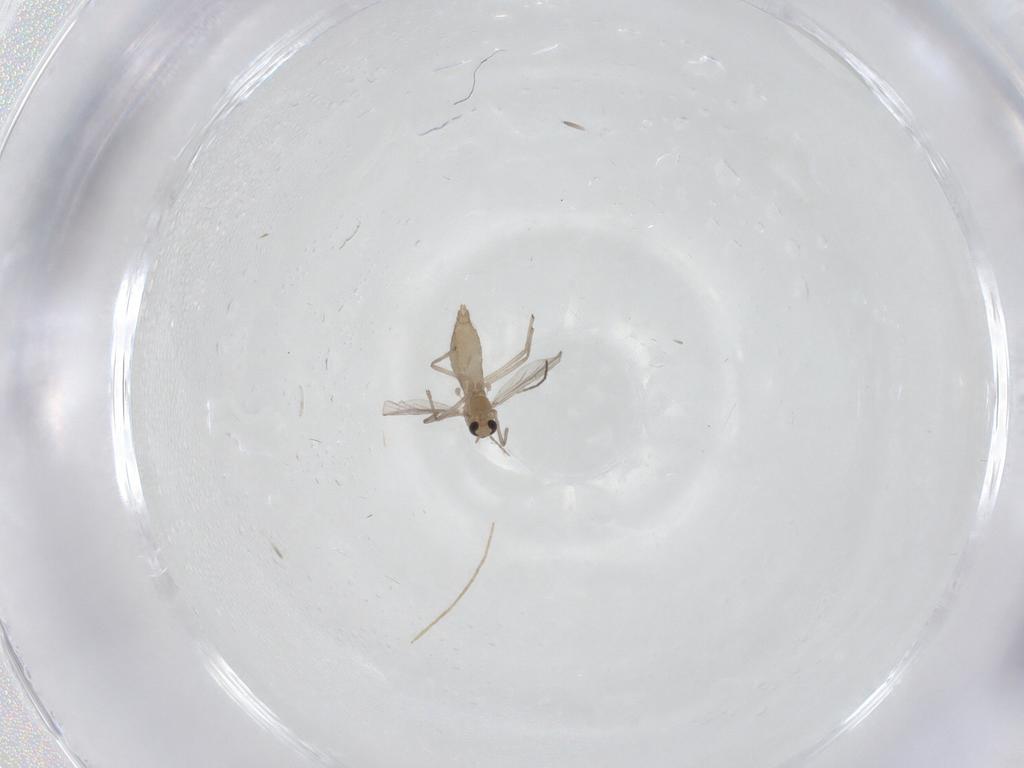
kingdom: Animalia
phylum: Arthropoda
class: Insecta
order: Diptera
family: Chironomidae
